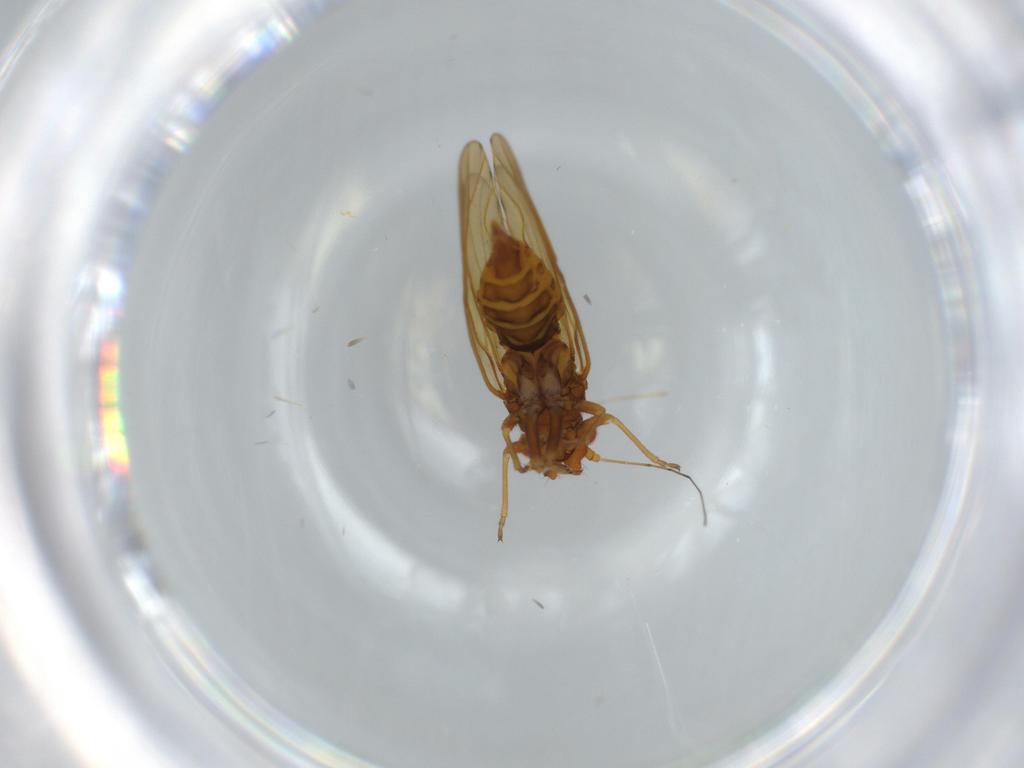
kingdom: Animalia
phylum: Arthropoda
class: Insecta
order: Hemiptera
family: Psylloidea_incertae_sedis
